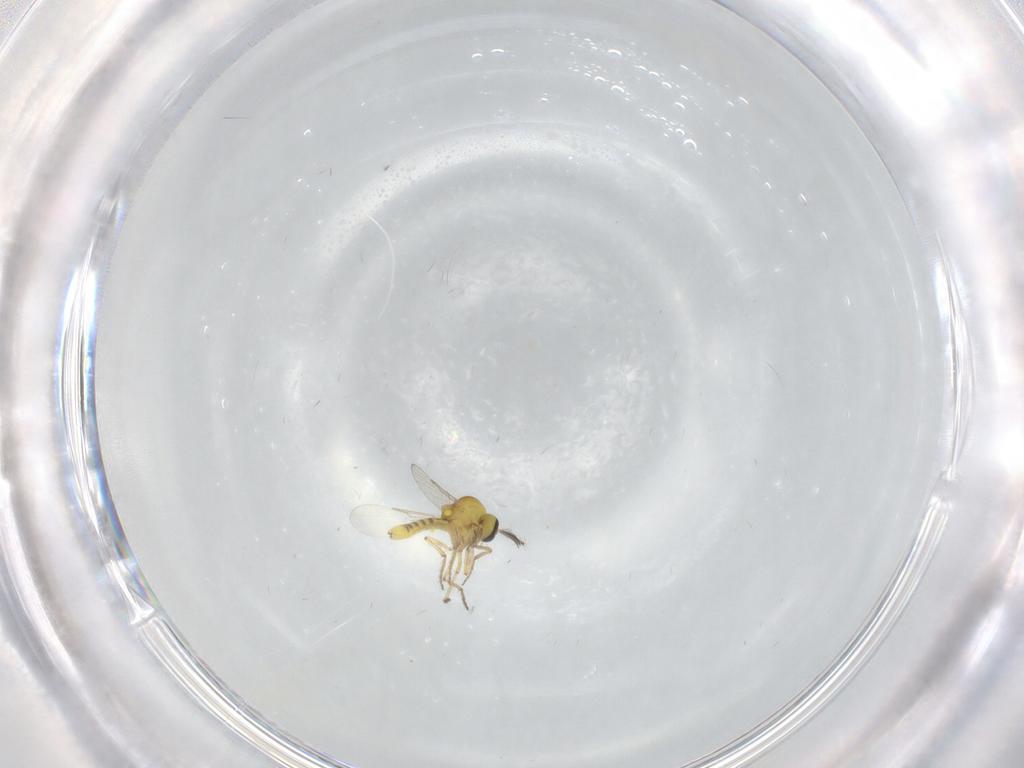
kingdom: Animalia
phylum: Arthropoda
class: Insecta
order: Diptera
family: Ceratopogonidae
